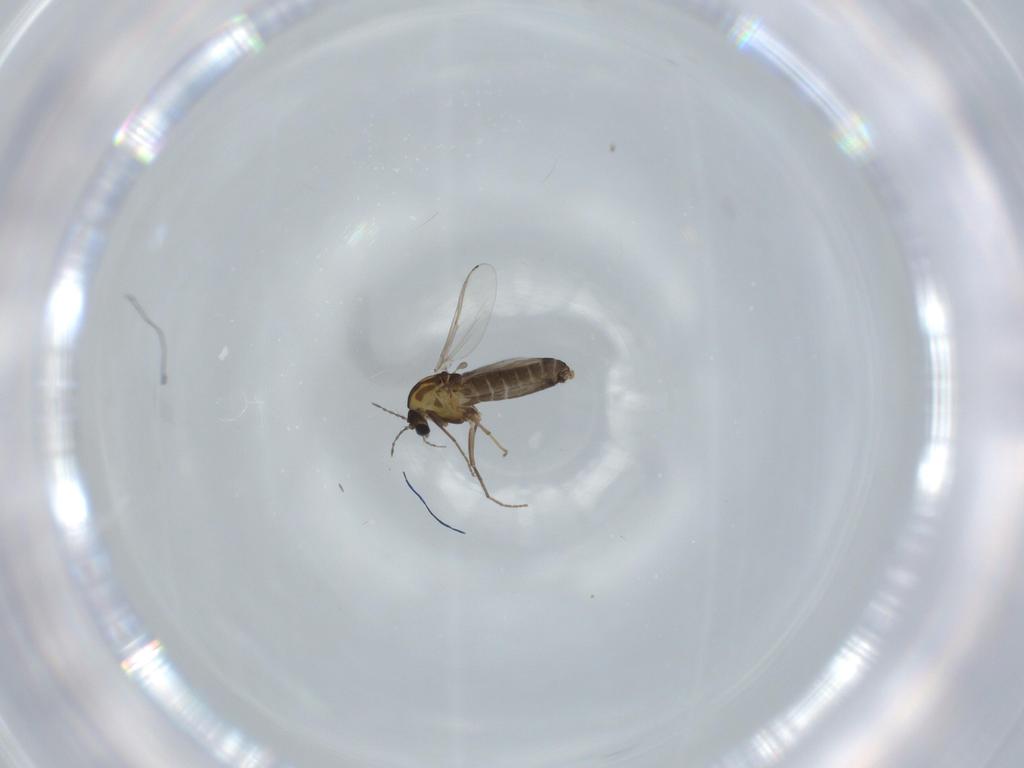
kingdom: Animalia
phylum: Arthropoda
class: Insecta
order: Diptera
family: Chironomidae
